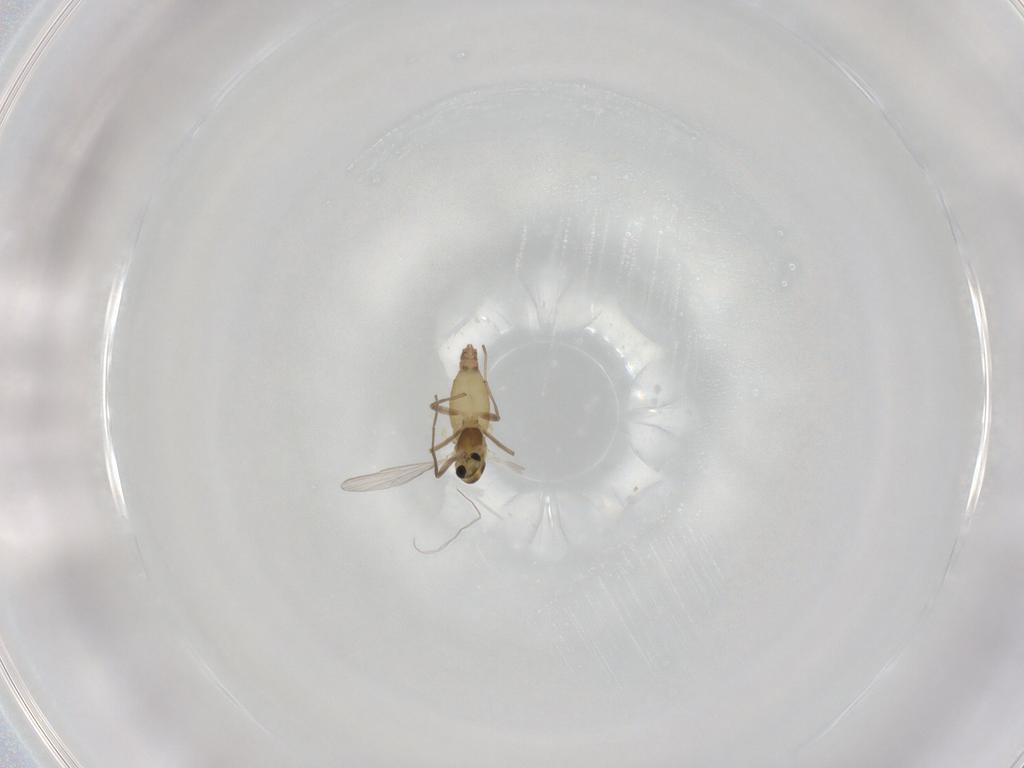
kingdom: Animalia
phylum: Arthropoda
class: Insecta
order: Diptera
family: Chironomidae
